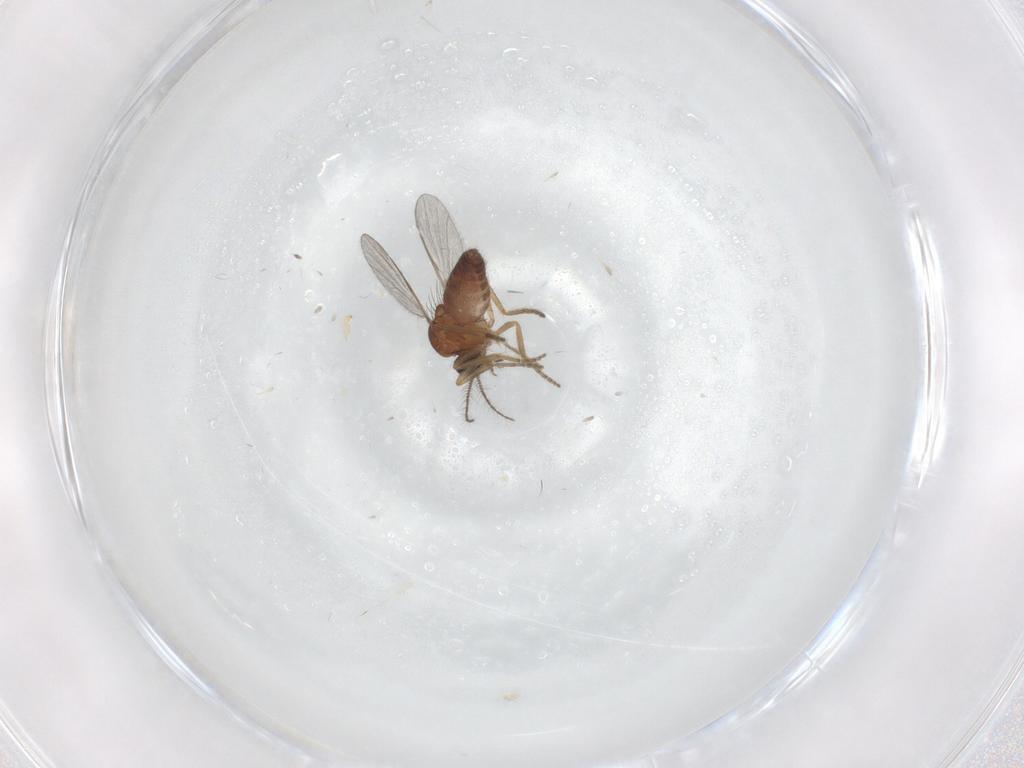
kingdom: Animalia
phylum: Arthropoda
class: Insecta
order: Diptera
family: Ceratopogonidae
